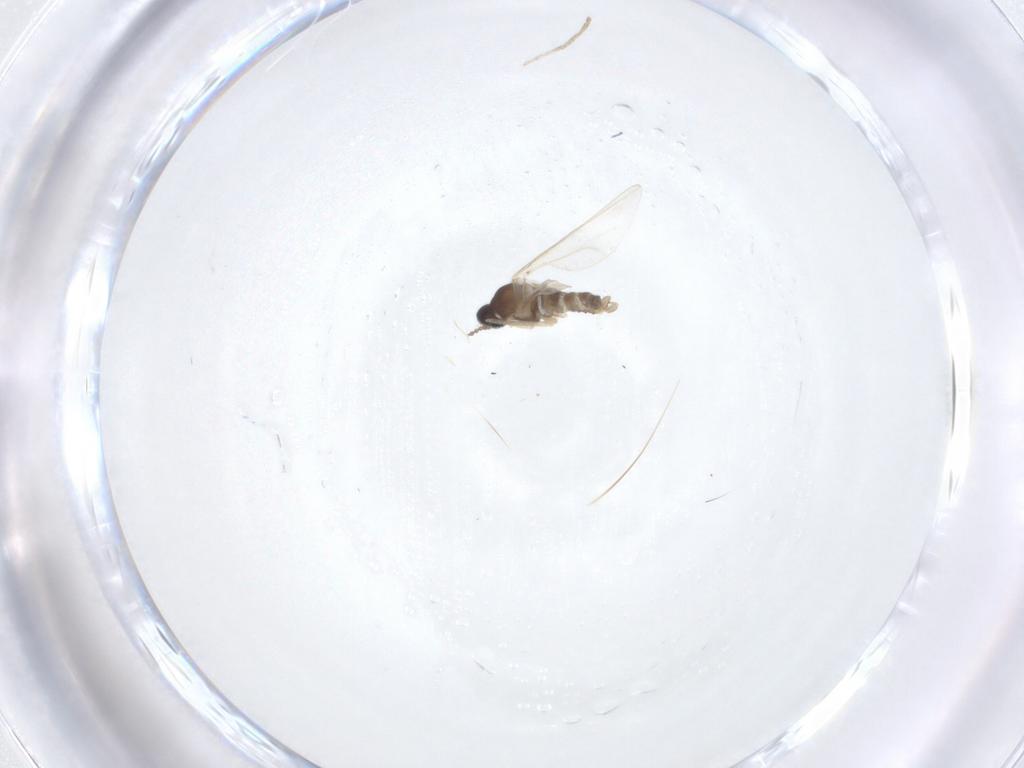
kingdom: Animalia
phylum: Arthropoda
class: Insecta
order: Diptera
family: Cecidomyiidae
